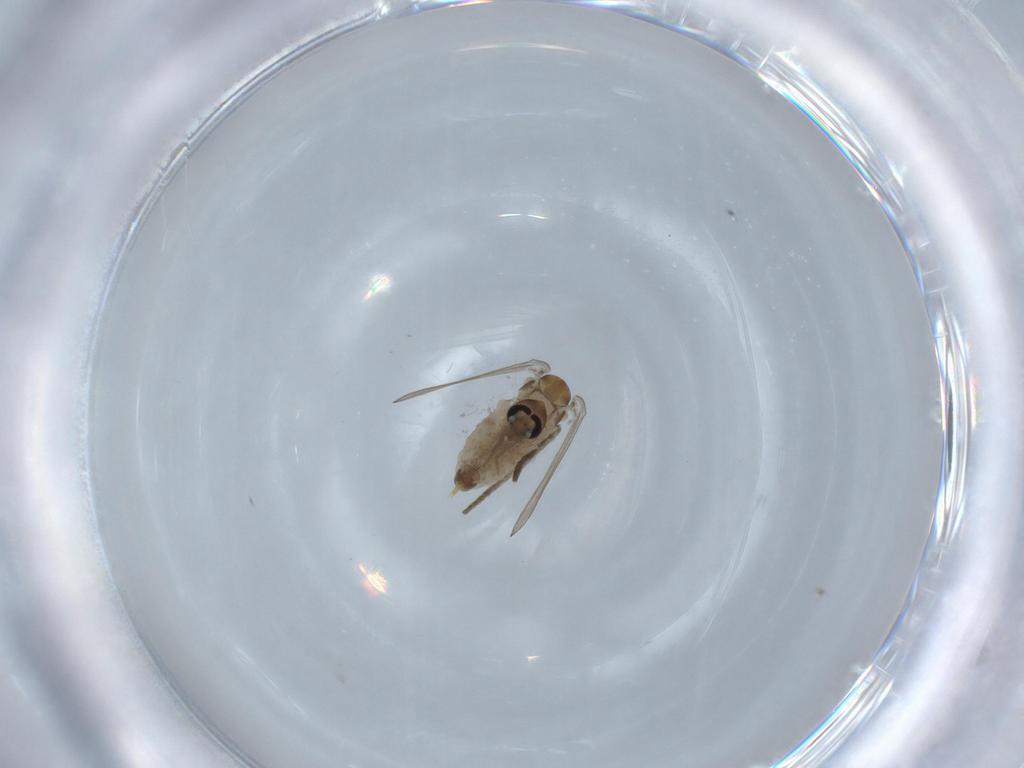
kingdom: Animalia
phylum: Arthropoda
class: Insecta
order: Diptera
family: Psychodidae
